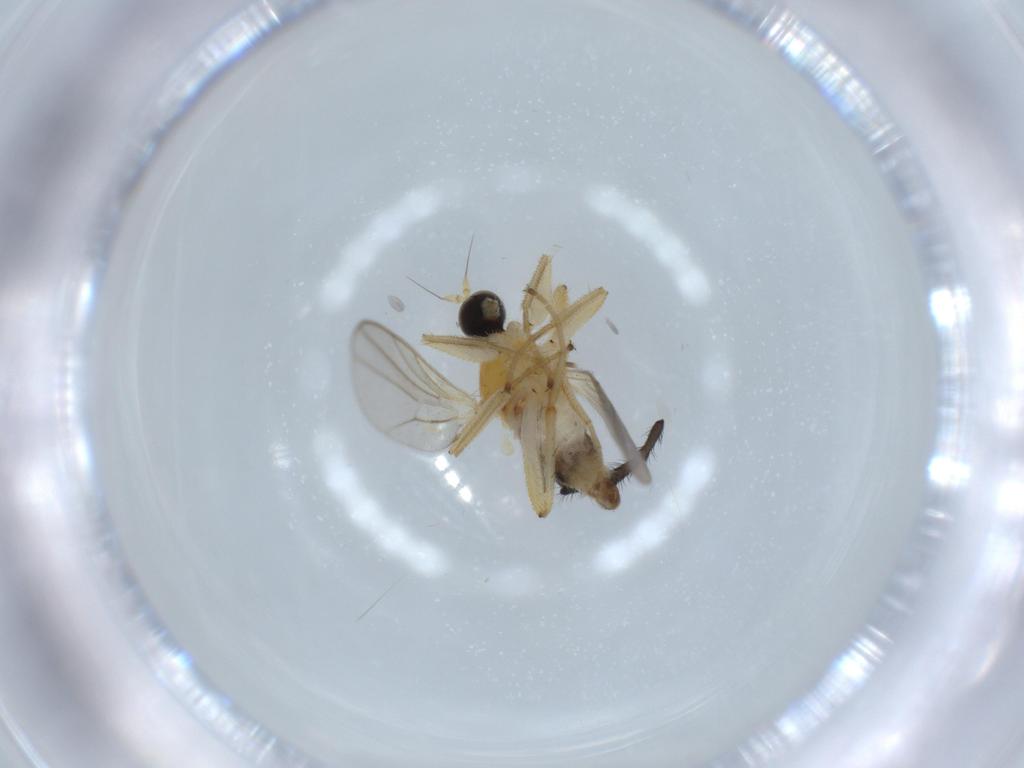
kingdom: Animalia
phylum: Arthropoda
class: Insecta
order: Diptera
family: Hybotidae
